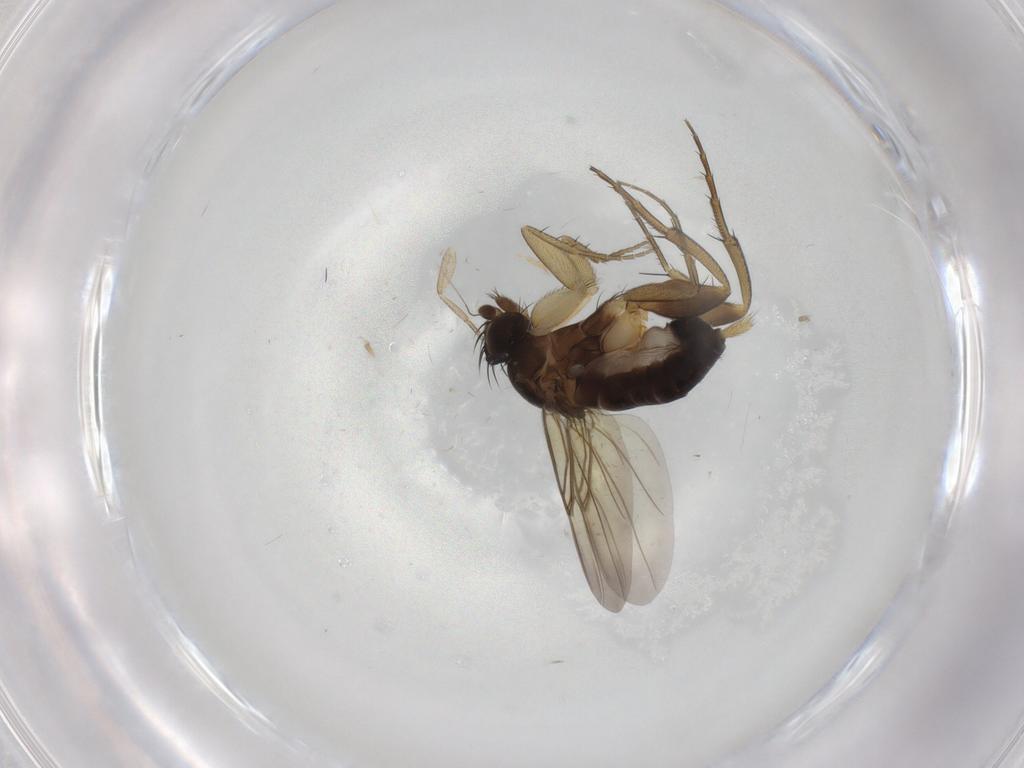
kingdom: Animalia
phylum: Arthropoda
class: Insecta
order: Diptera
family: Phoridae
